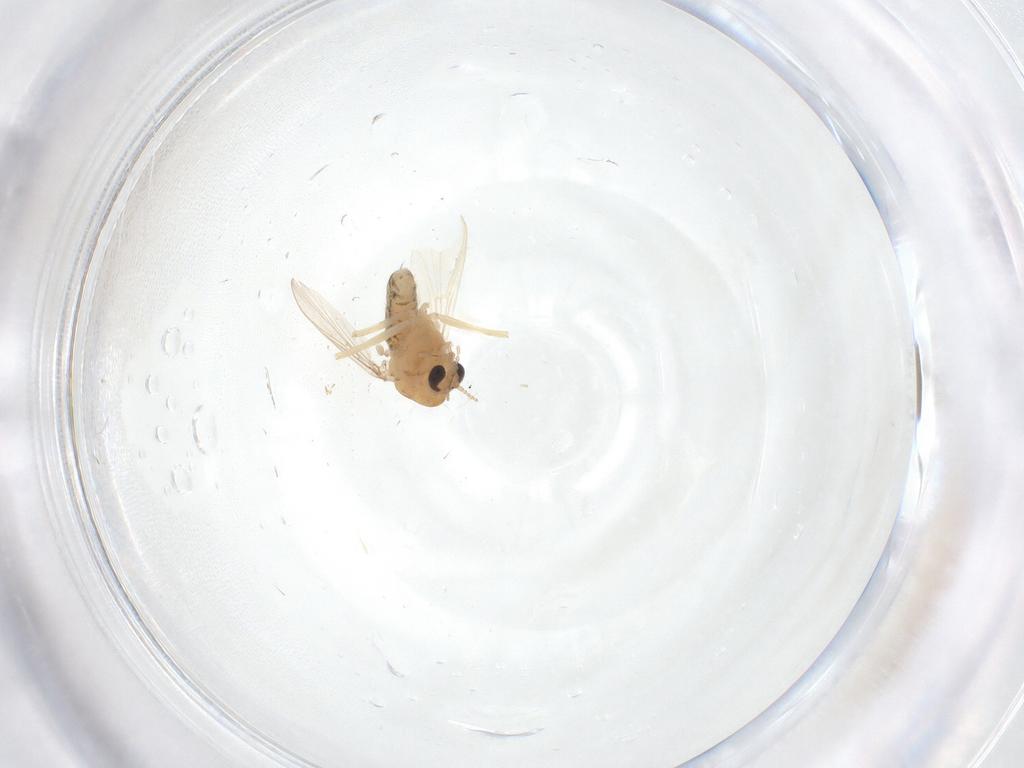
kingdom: Animalia
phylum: Arthropoda
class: Insecta
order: Diptera
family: Chironomidae
